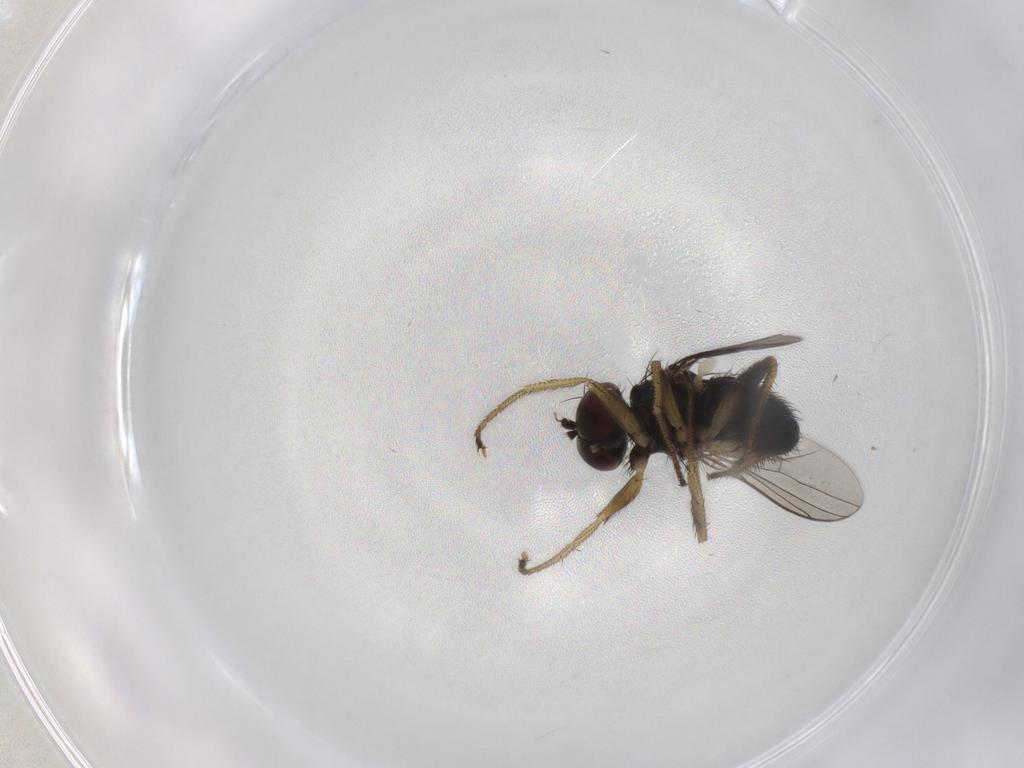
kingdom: Animalia
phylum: Arthropoda
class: Insecta
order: Diptera
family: Dolichopodidae
